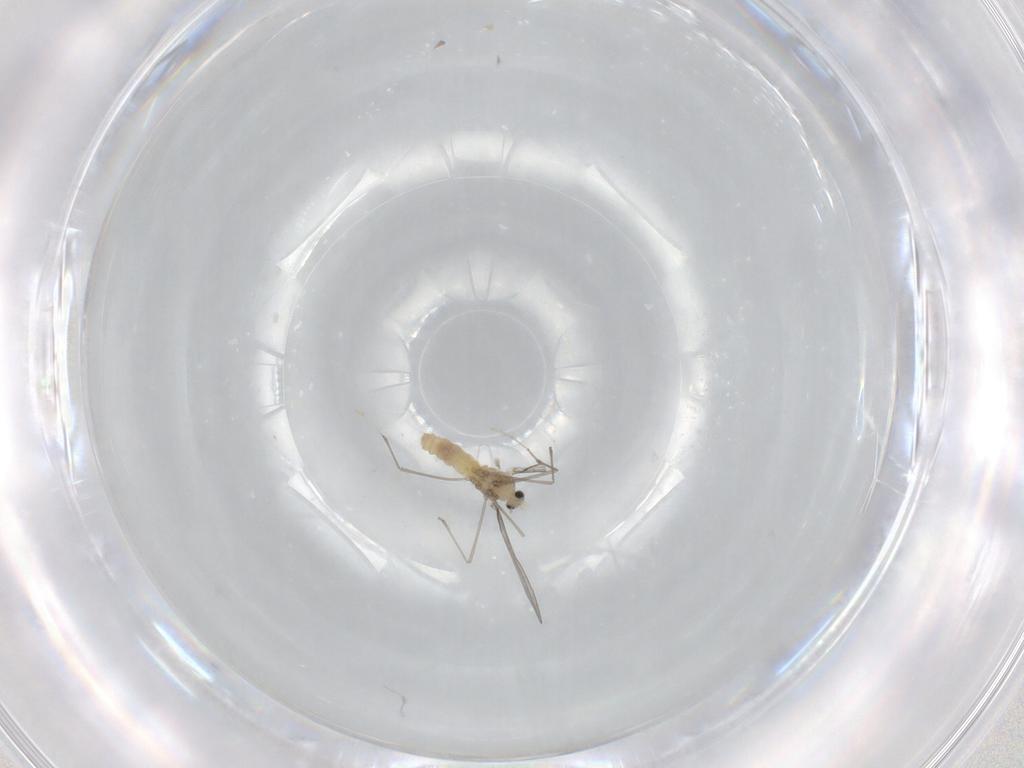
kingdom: Animalia
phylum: Arthropoda
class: Insecta
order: Diptera
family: Cecidomyiidae
